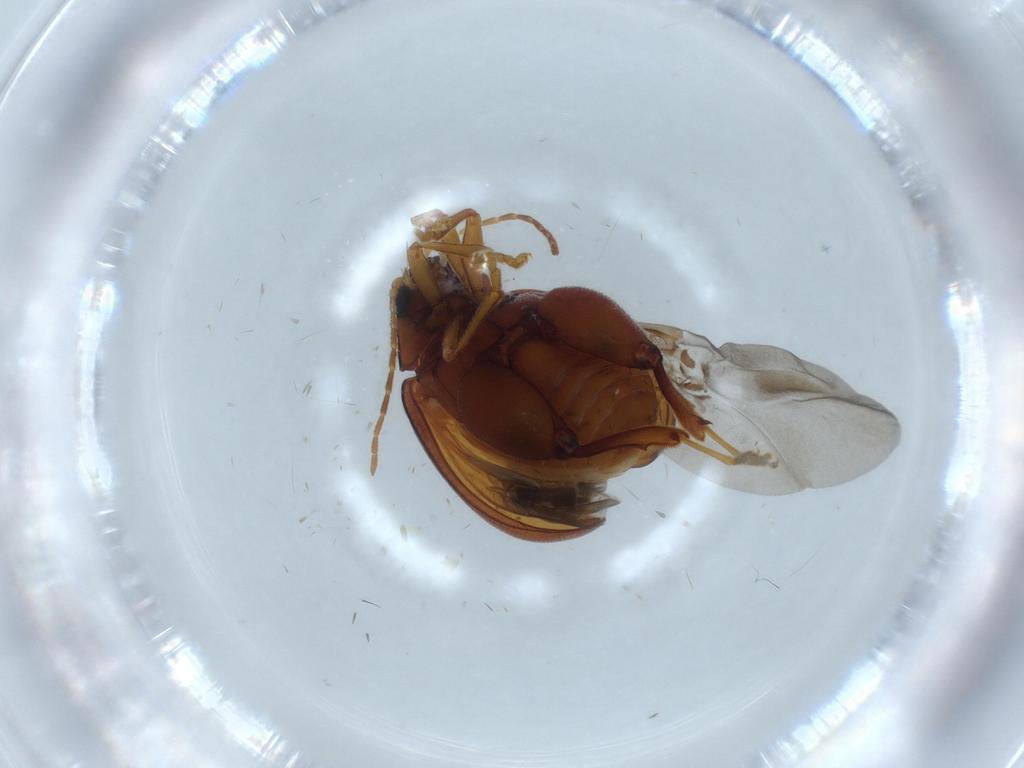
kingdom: Animalia
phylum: Arthropoda
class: Insecta
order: Coleoptera
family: Chrysomelidae
